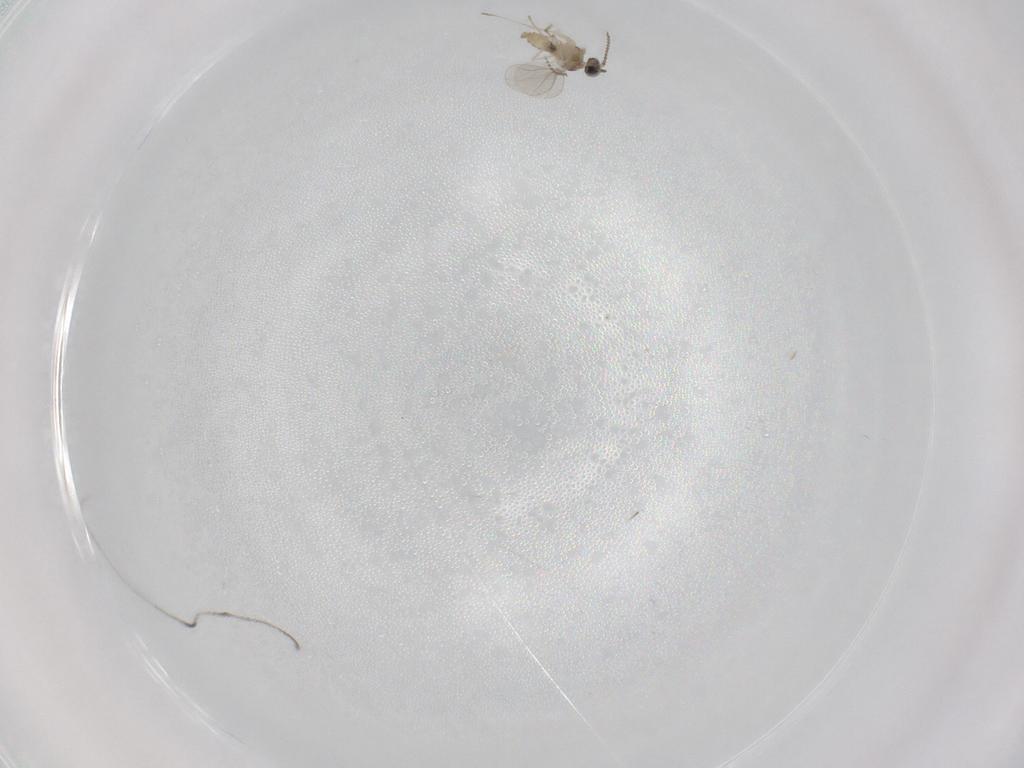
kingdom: Animalia
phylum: Arthropoda
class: Insecta
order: Diptera
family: Cecidomyiidae
